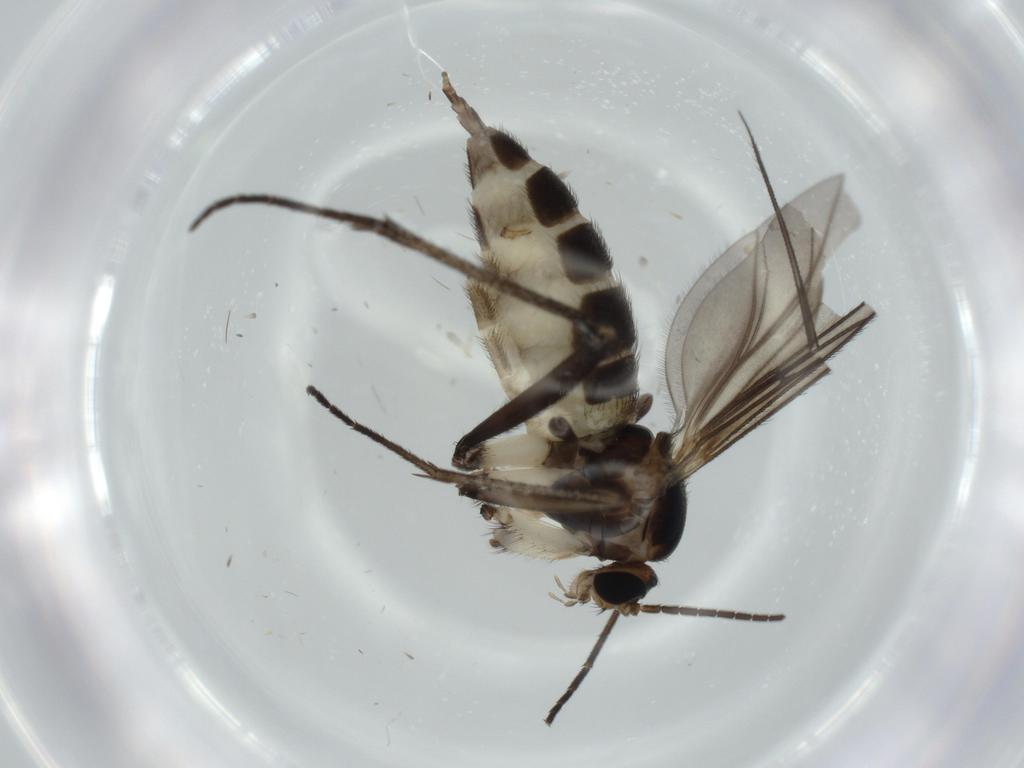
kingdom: Animalia
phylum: Arthropoda
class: Insecta
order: Diptera
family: Sciaridae
